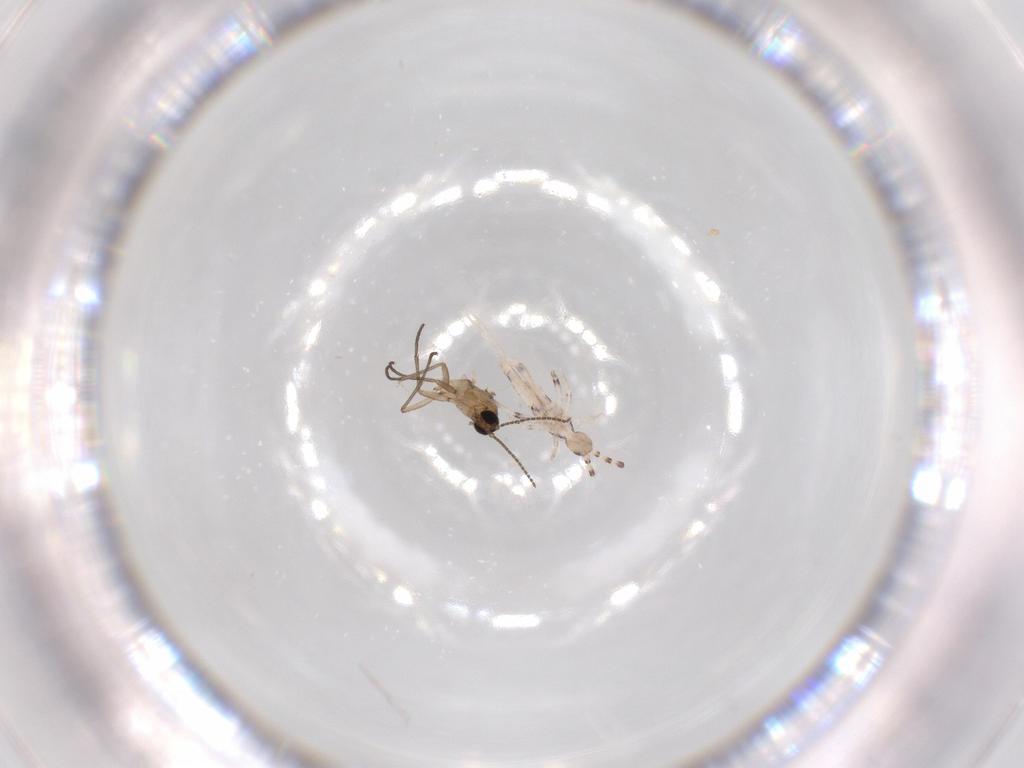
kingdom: Animalia
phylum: Arthropoda
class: Insecta
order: Diptera
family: Sciaridae
